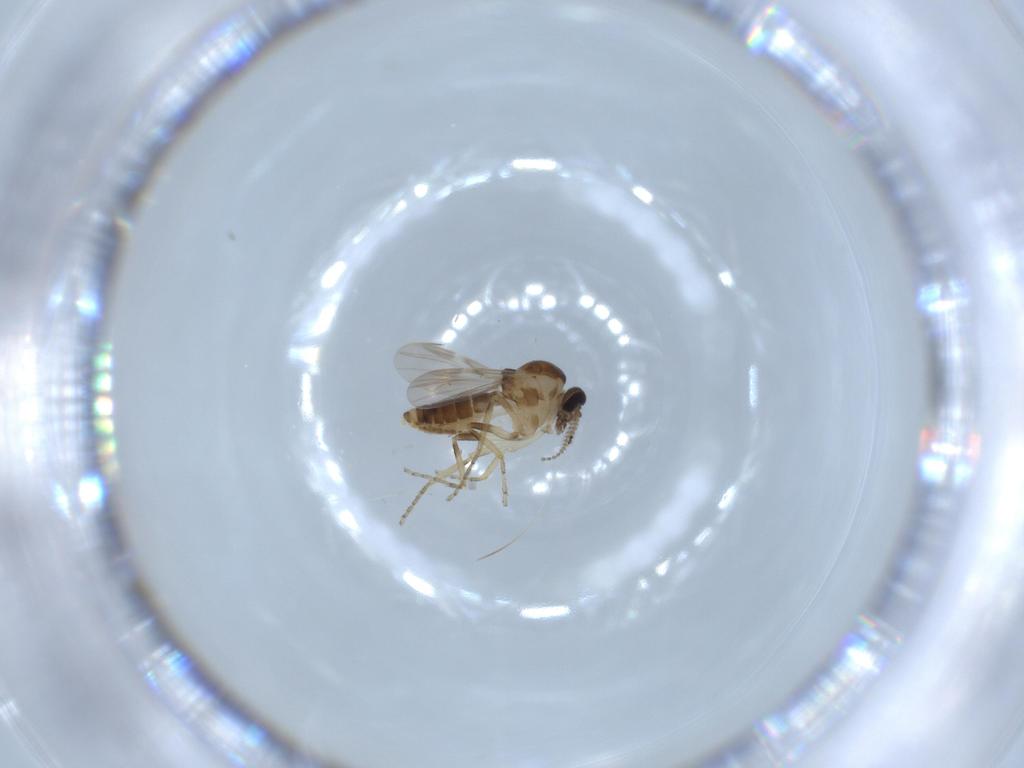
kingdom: Animalia
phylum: Arthropoda
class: Insecta
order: Diptera
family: Ceratopogonidae
